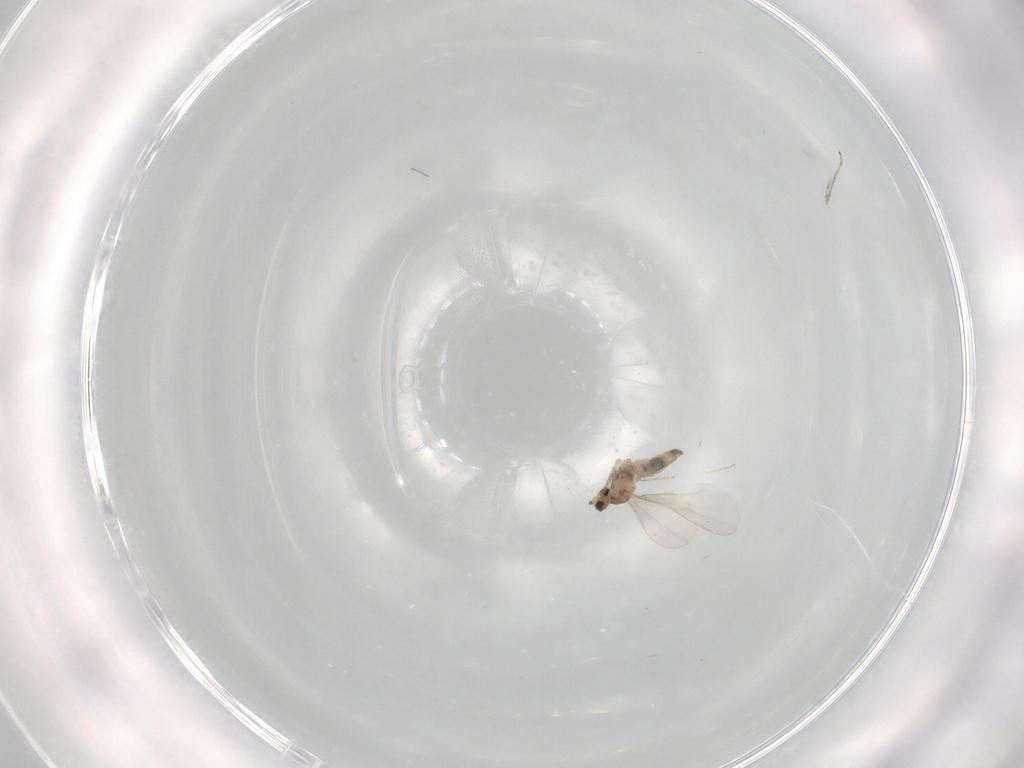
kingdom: Animalia
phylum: Arthropoda
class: Insecta
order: Diptera
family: Cecidomyiidae
